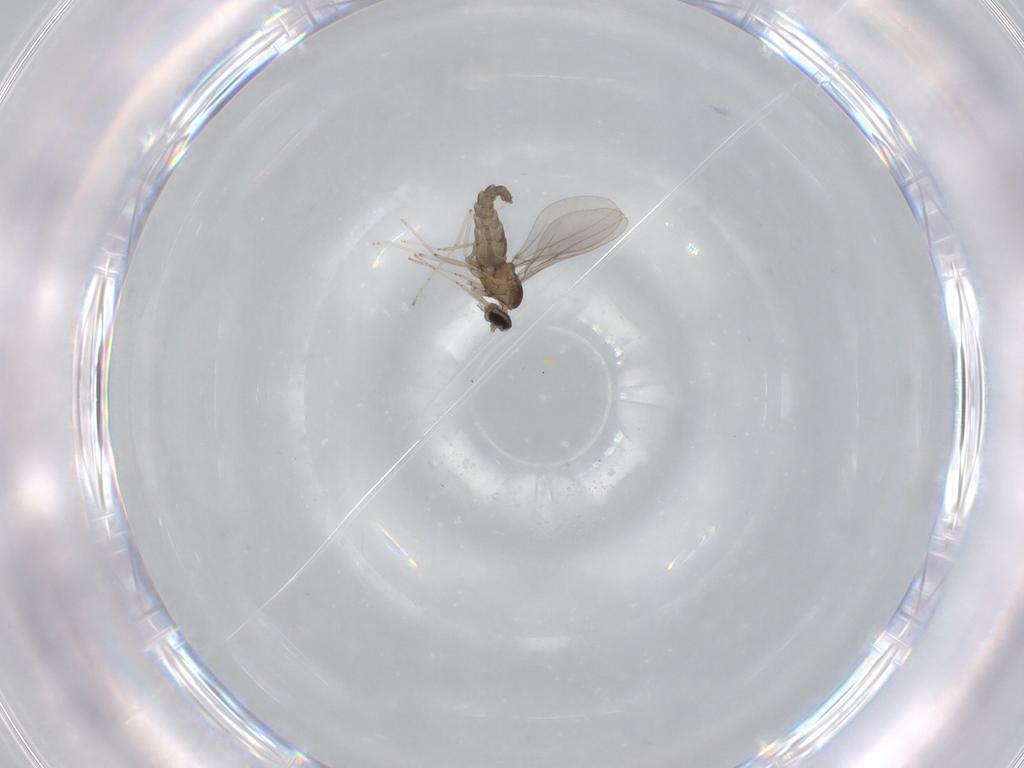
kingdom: Animalia
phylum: Arthropoda
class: Insecta
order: Diptera
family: Cecidomyiidae
